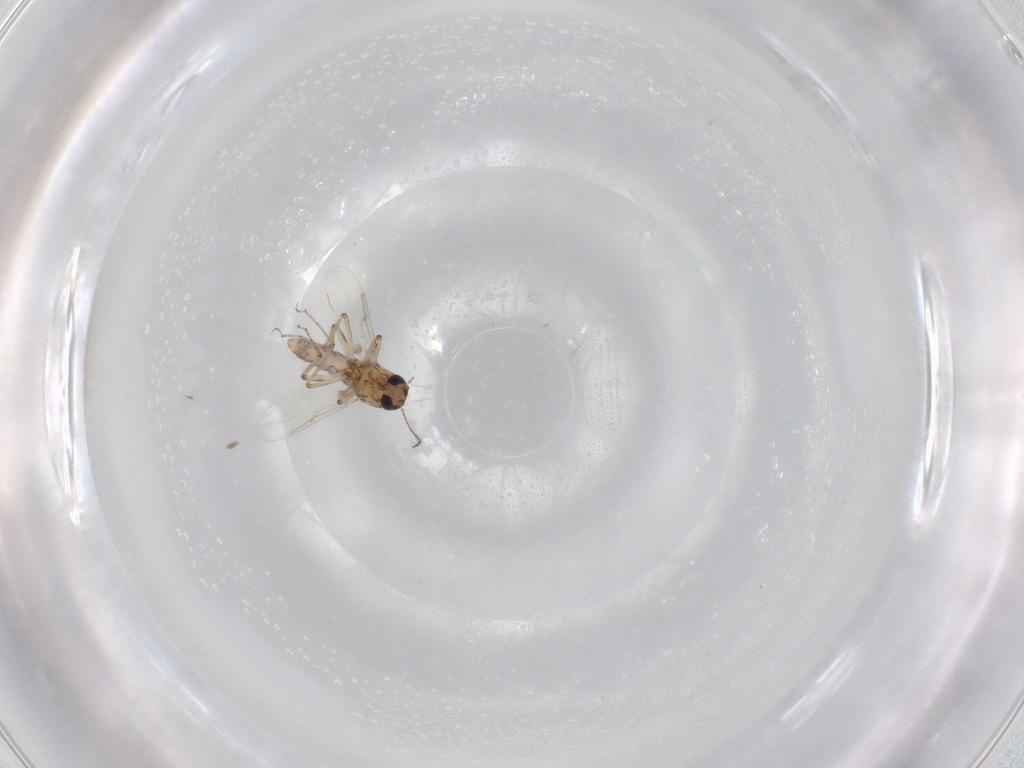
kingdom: Animalia
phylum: Arthropoda
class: Insecta
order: Diptera
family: Ceratopogonidae
